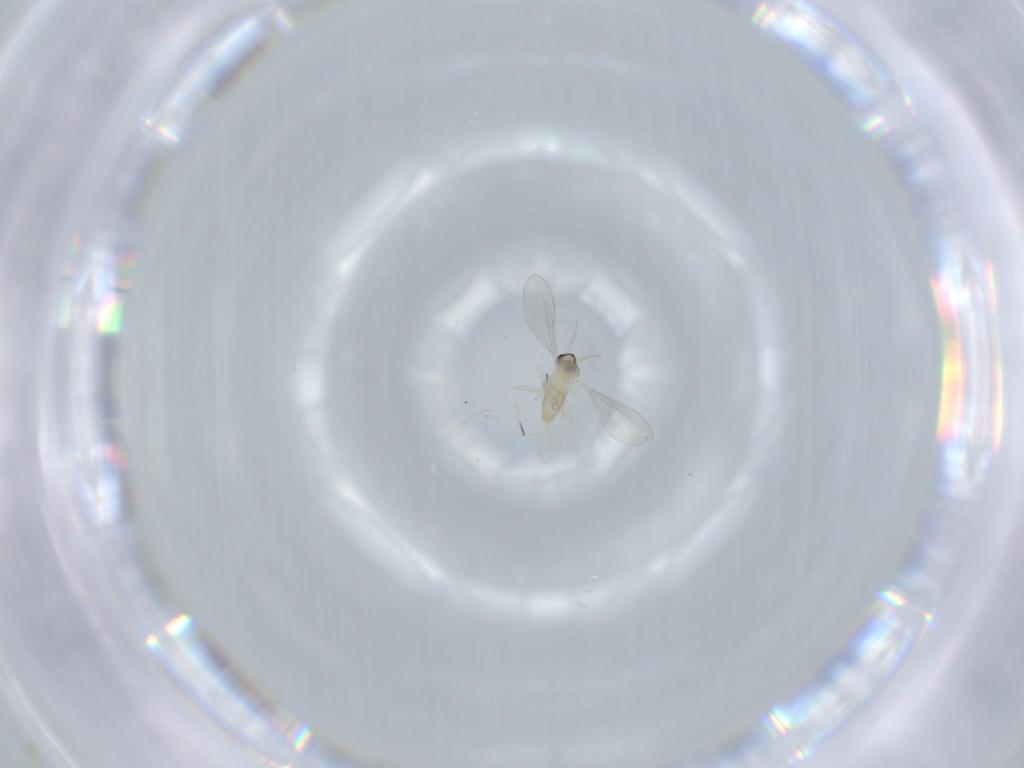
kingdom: Animalia
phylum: Arthropoda
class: Insecta
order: Diptera
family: Cecidomyiidae
